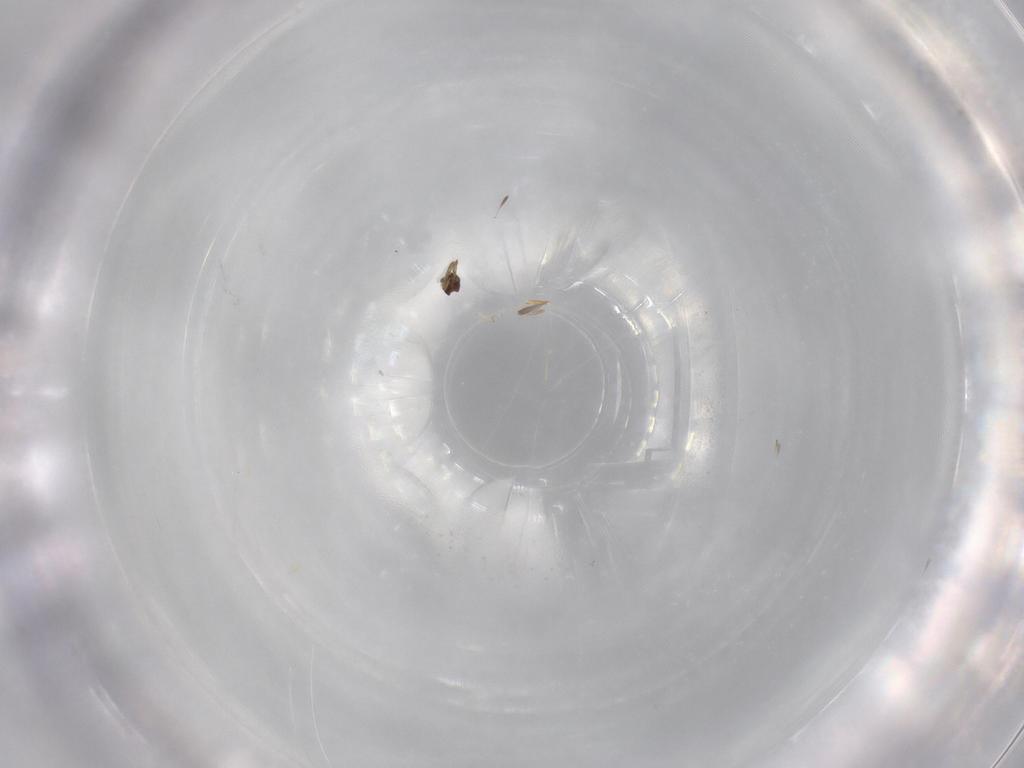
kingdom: Animalia
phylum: Arthropoda
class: Insecta
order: Hymenoptera
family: Aphelinidae
